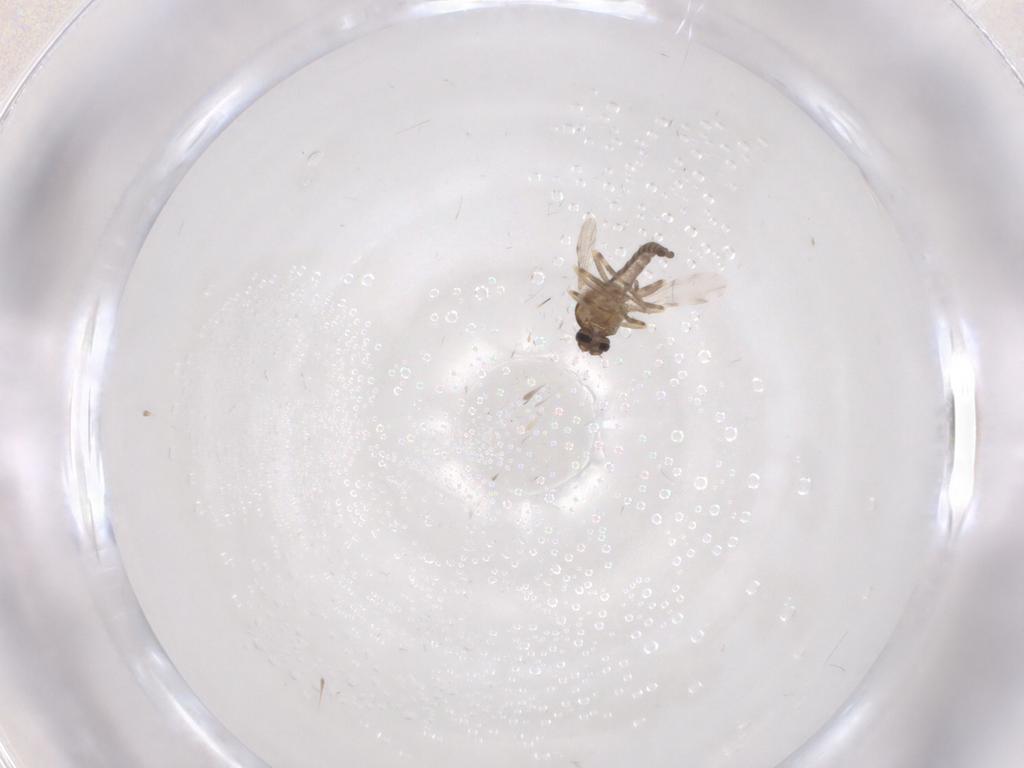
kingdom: Animalia
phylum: Arthropoda
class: Insecta
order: Diptera
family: Ceratopogonidae
